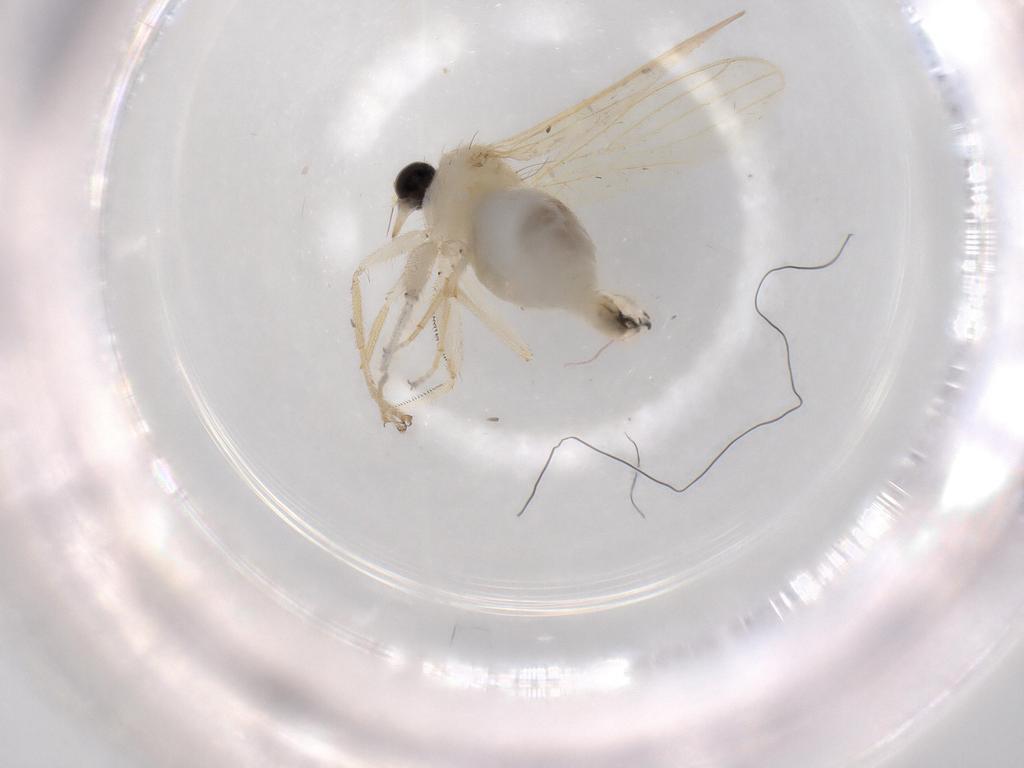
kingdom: Animalia
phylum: Arthropoda
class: Insecta
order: Diptera
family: Hybotidae
